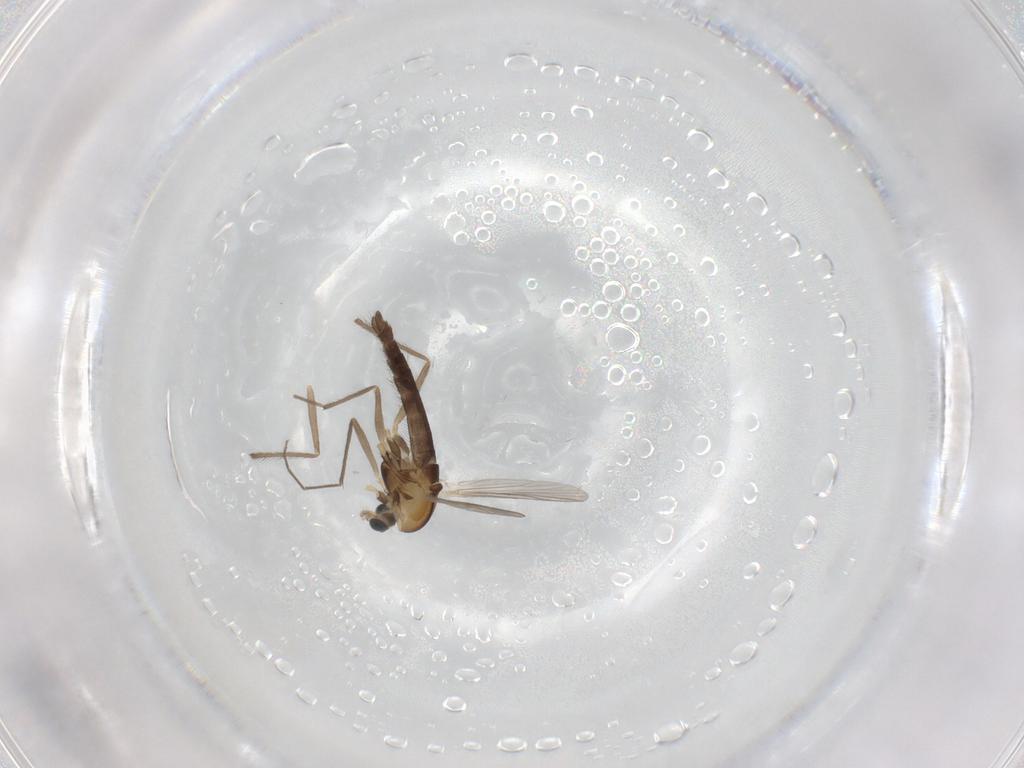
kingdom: Animalia
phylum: Arthropoda
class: Insecta
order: Diptera
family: Chironomidae
